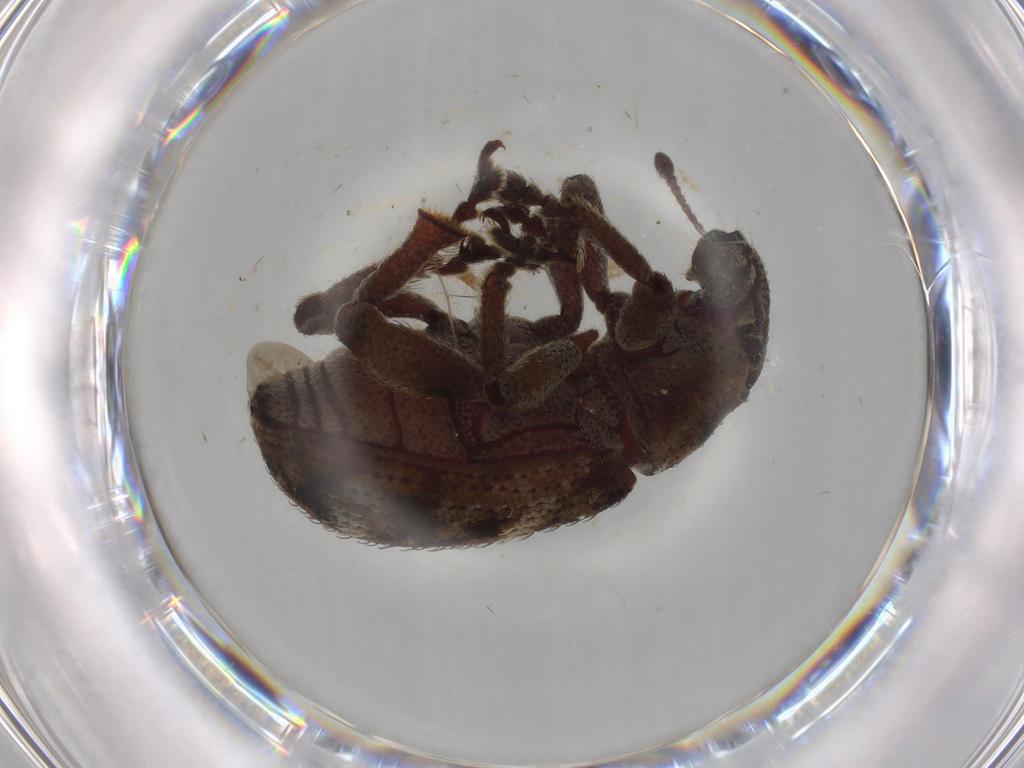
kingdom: Animalia
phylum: Arthropoda
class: Insecta
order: Coleoptera
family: Curculionidae
